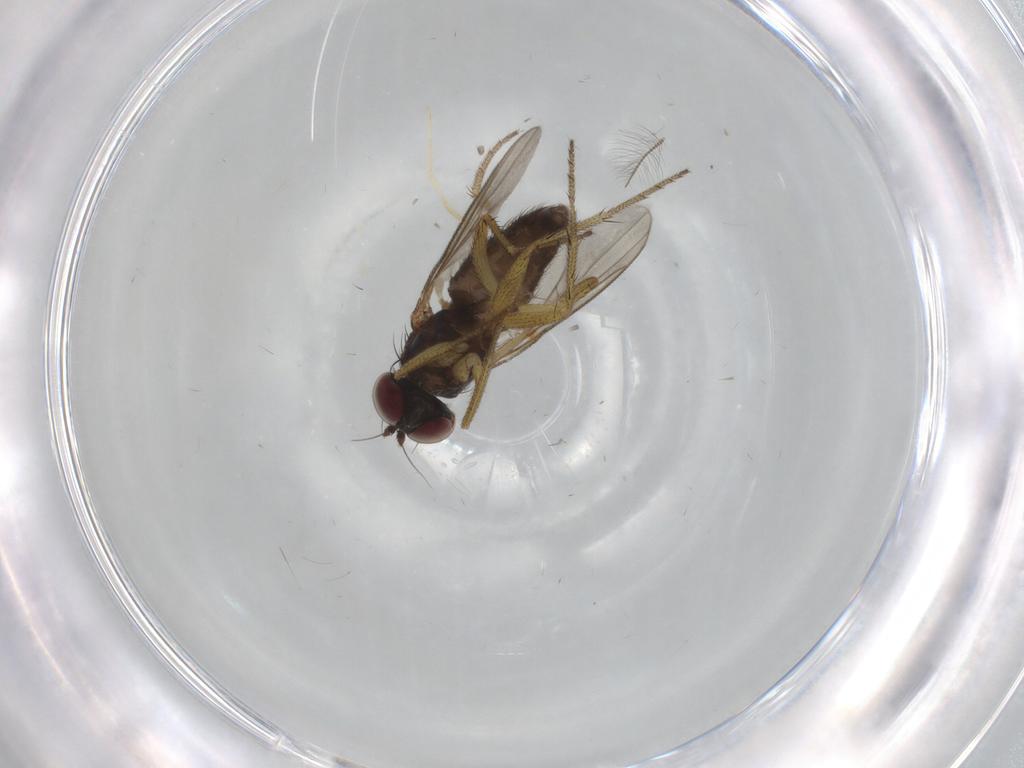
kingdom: Animalia
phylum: Arthropoda
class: Insecta
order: Diptera
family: Chironomidae
